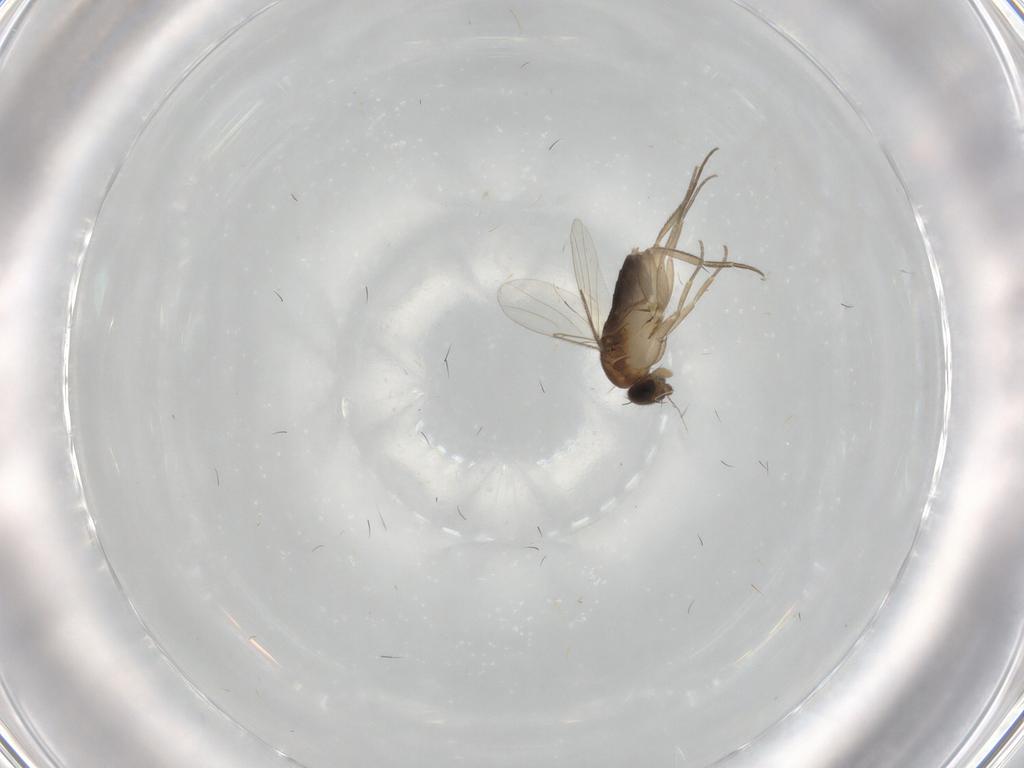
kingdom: Animalia
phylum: Arthropoda
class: Insecta
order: Diptera
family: Phoridae
